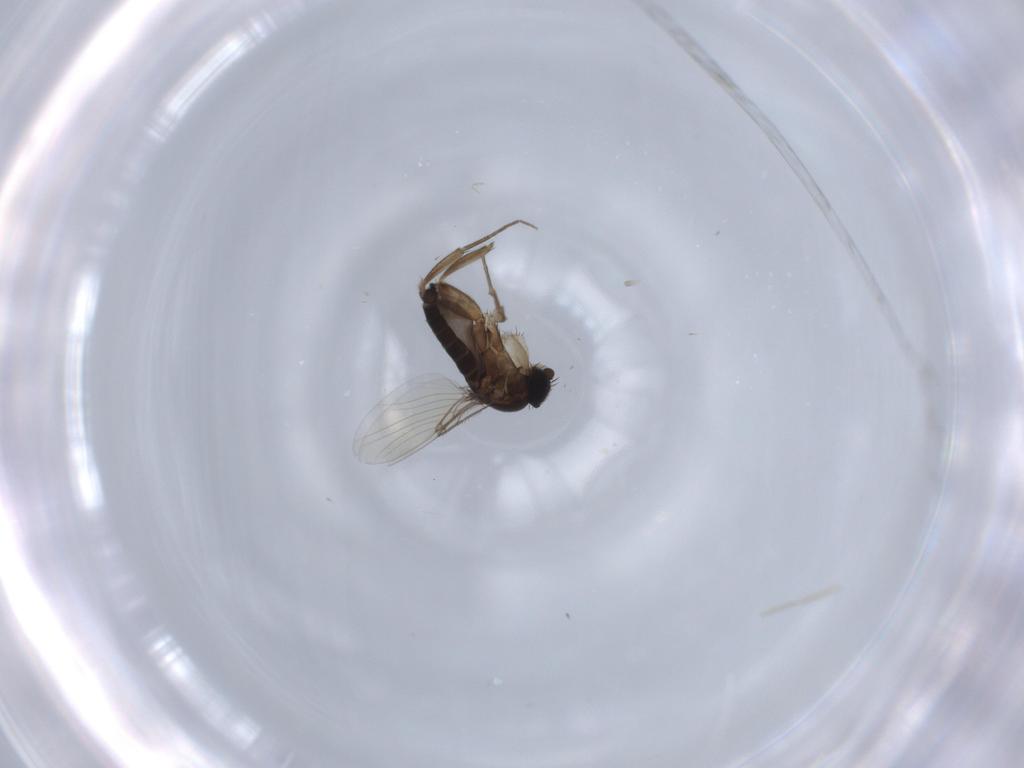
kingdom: Animalia
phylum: Arthropoda
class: Insecta
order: Diptera
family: Phoridae
